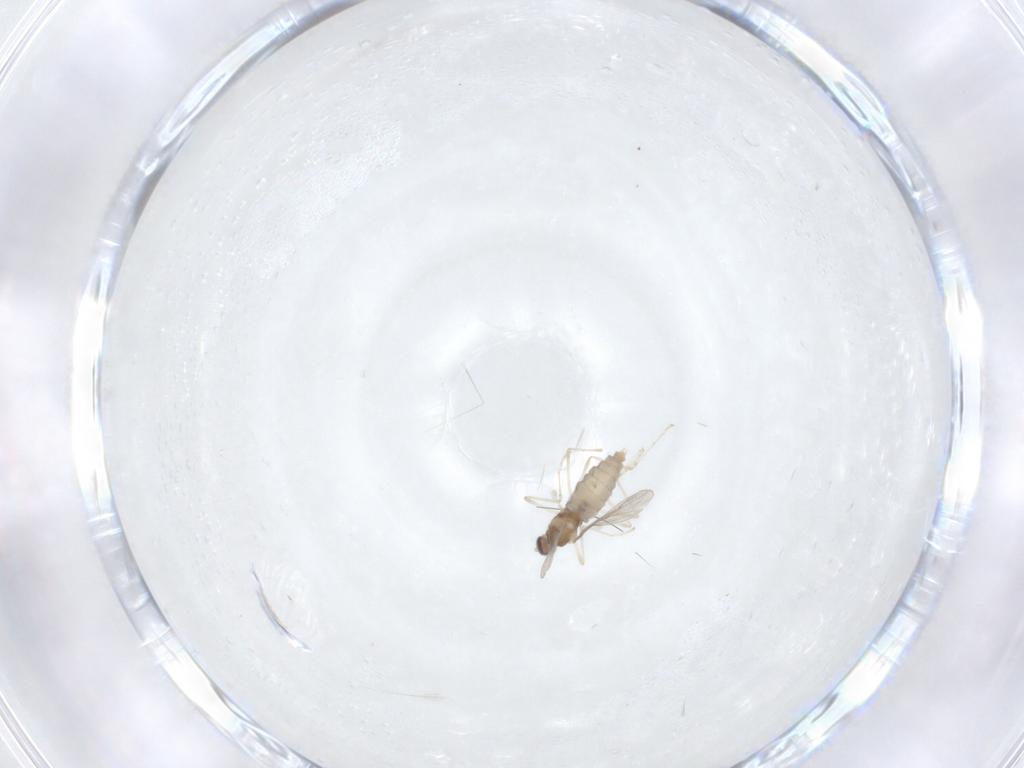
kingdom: Animalia
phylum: Arthropoda
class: Insecta
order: Diptera
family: Cecidomyiidae
